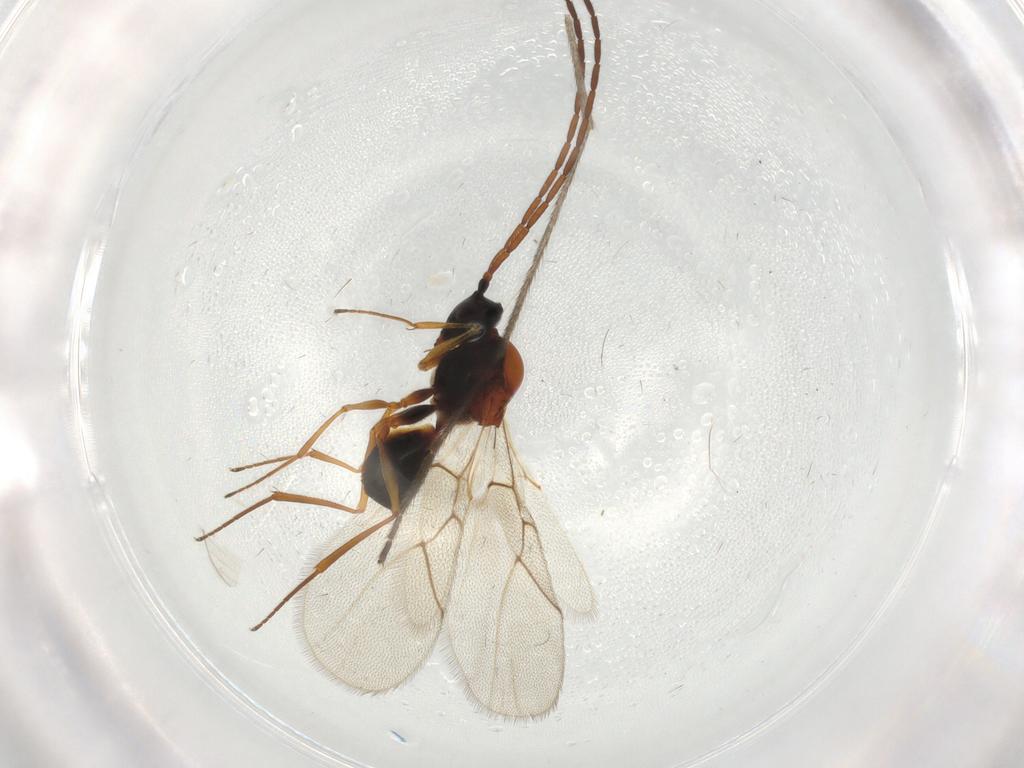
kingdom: Animalia
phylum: Arthropoda
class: Insecta
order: Hymenoptera
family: Figitidae
